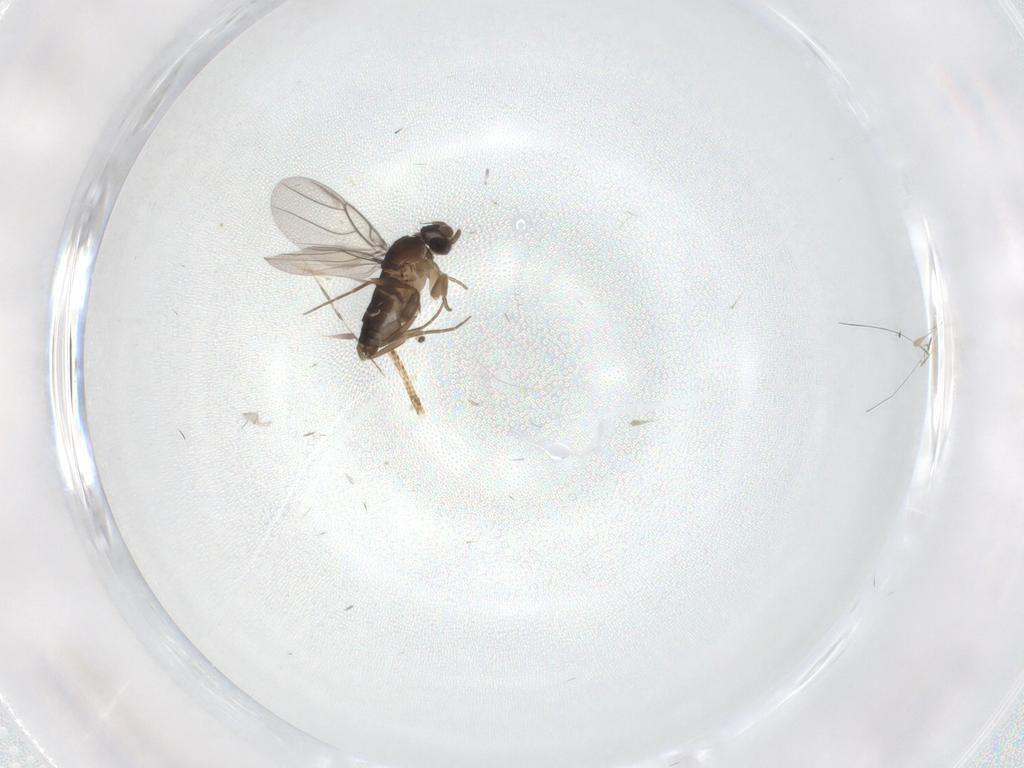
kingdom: Animalia
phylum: Arthropoda
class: Insecta
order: Diptera
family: Phoridae
